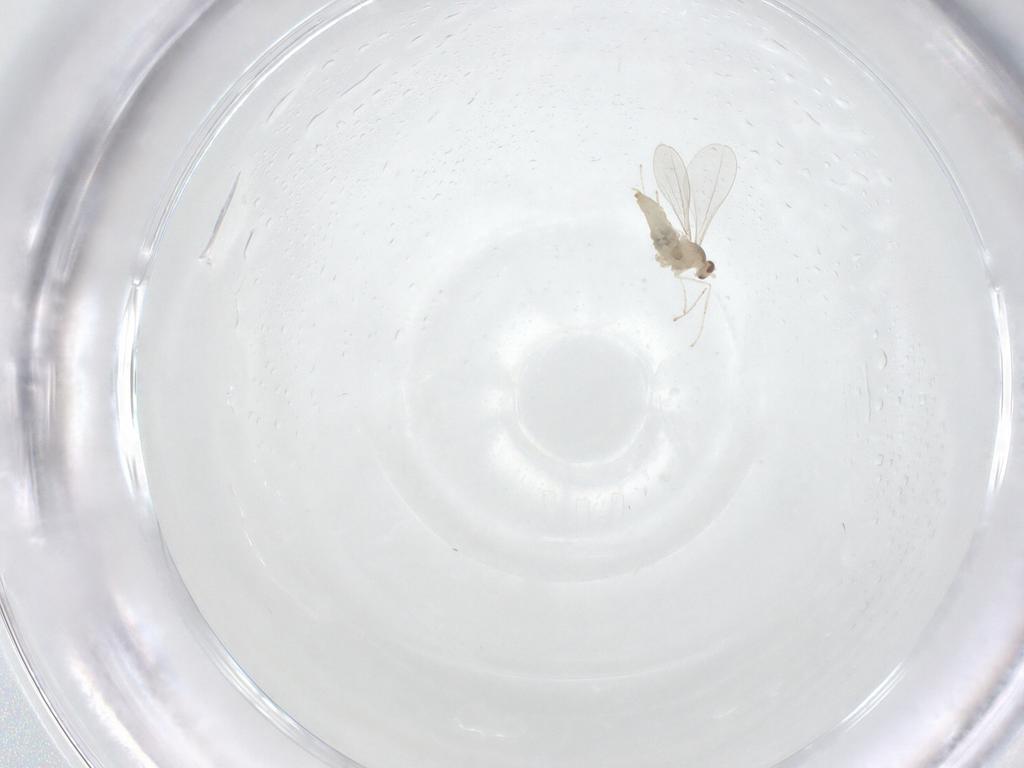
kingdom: Animalia
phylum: Arthropoda
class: Insecta
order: Diptera
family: Cecidomyiidae
